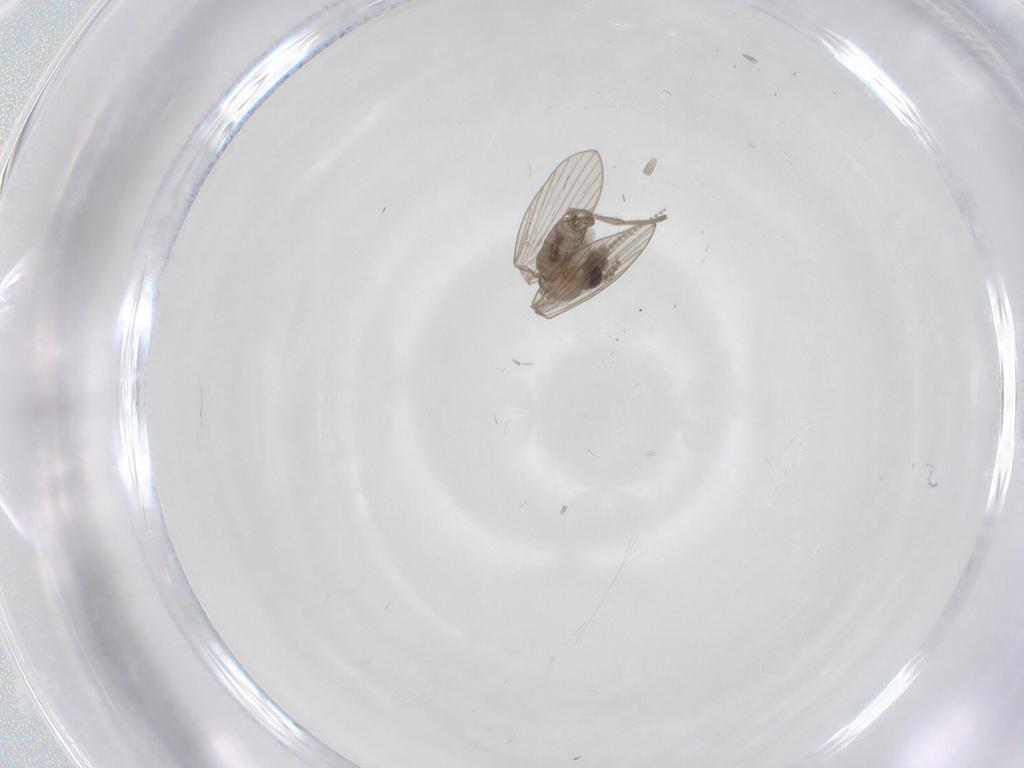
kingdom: Animalia
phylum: Arthropoda
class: Insecta
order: Diptera
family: Psychodidae
